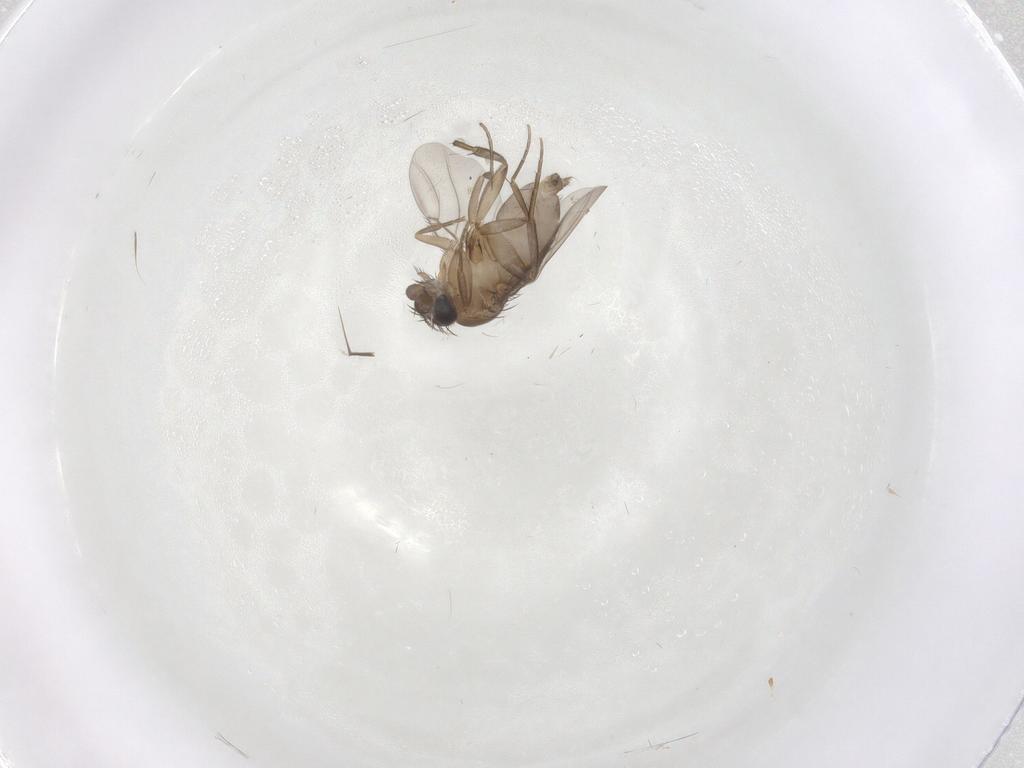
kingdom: Animalia
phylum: Arthropoda
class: Insecta
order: Diptera
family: Phoridae
